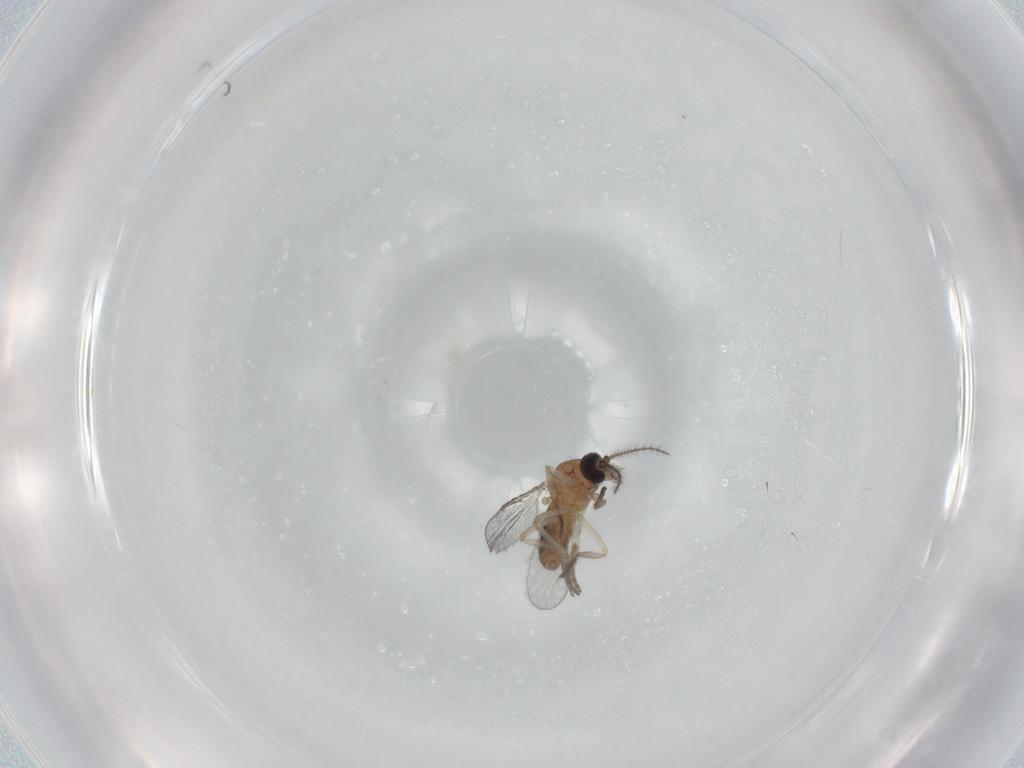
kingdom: Animalia
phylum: Arthropoda
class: Insecta
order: Diptera
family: Ceratopogonidae
